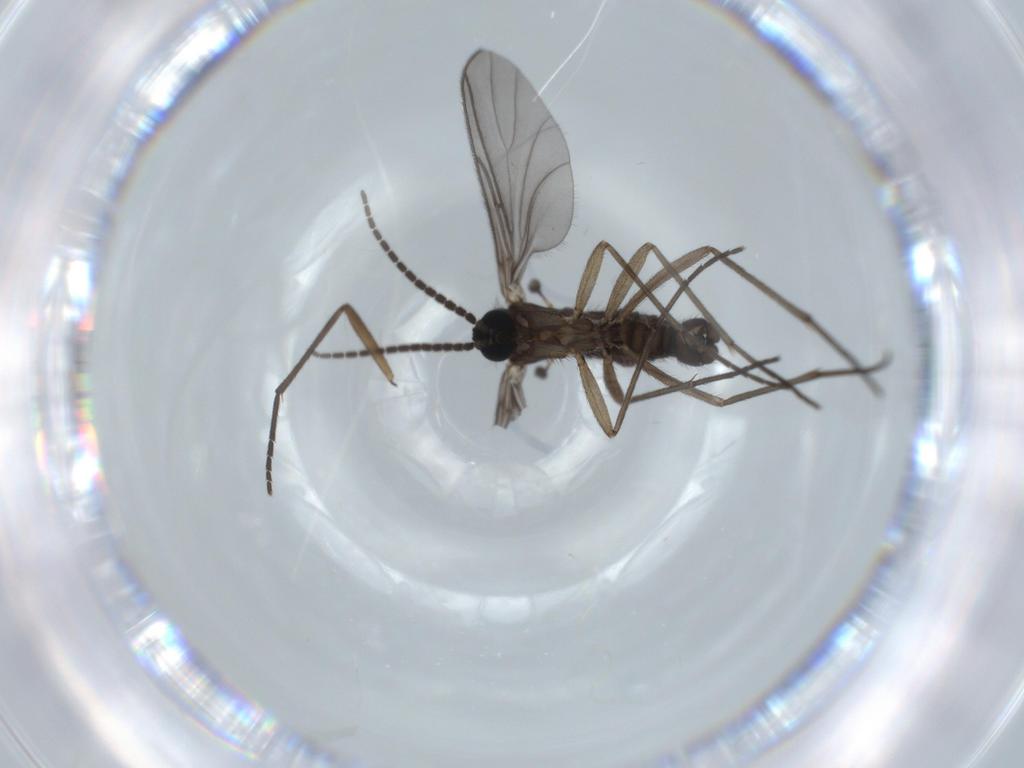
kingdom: Animalia
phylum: Arthropoda
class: Insecta
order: Diptera
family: Sciaridae
